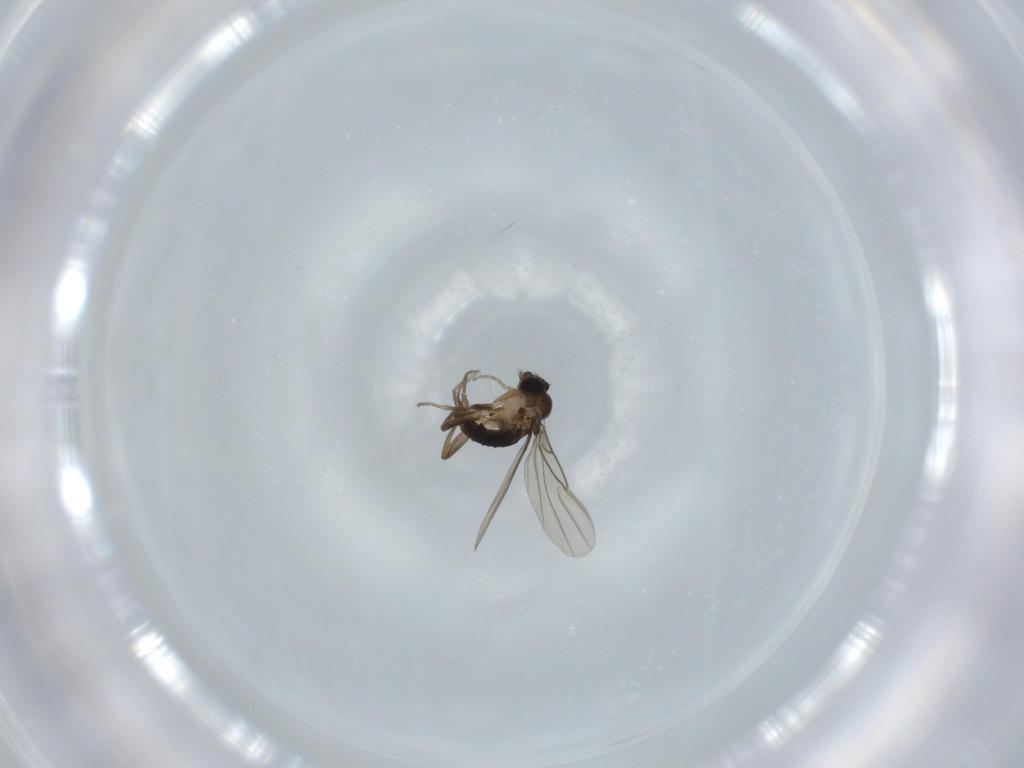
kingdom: Animalia
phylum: Arthropoda
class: Insecta
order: Diptera
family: Phoridae
